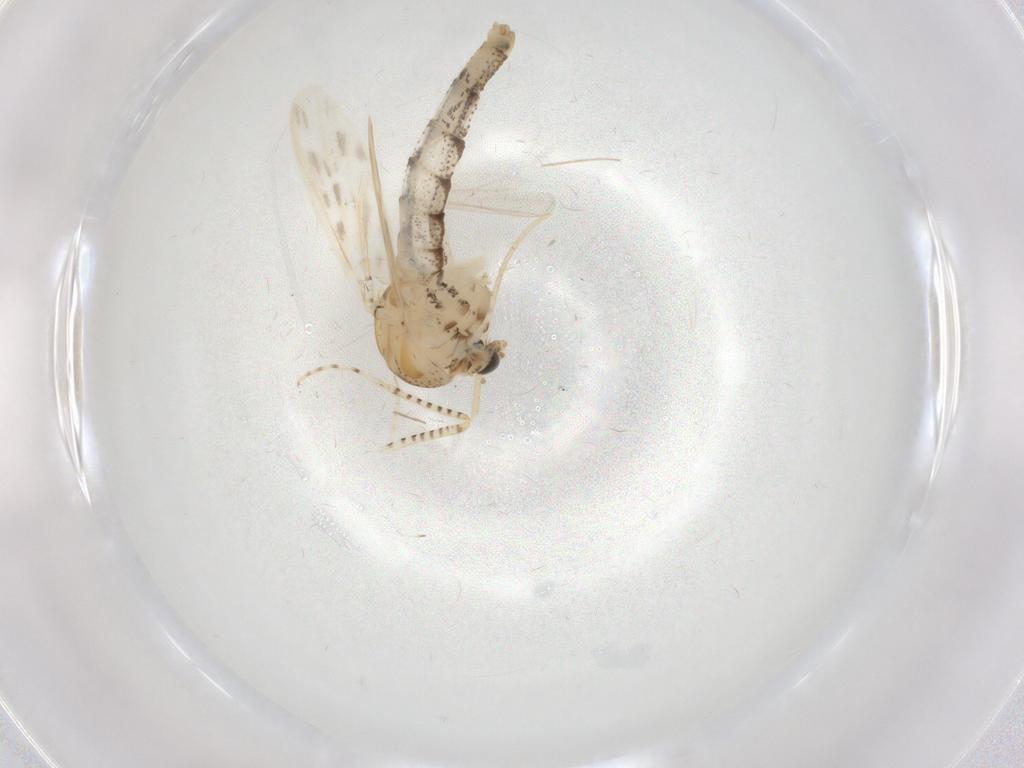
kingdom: Animalia
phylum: Arthropoda
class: Insecta
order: Diptera
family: Chaoboridae
